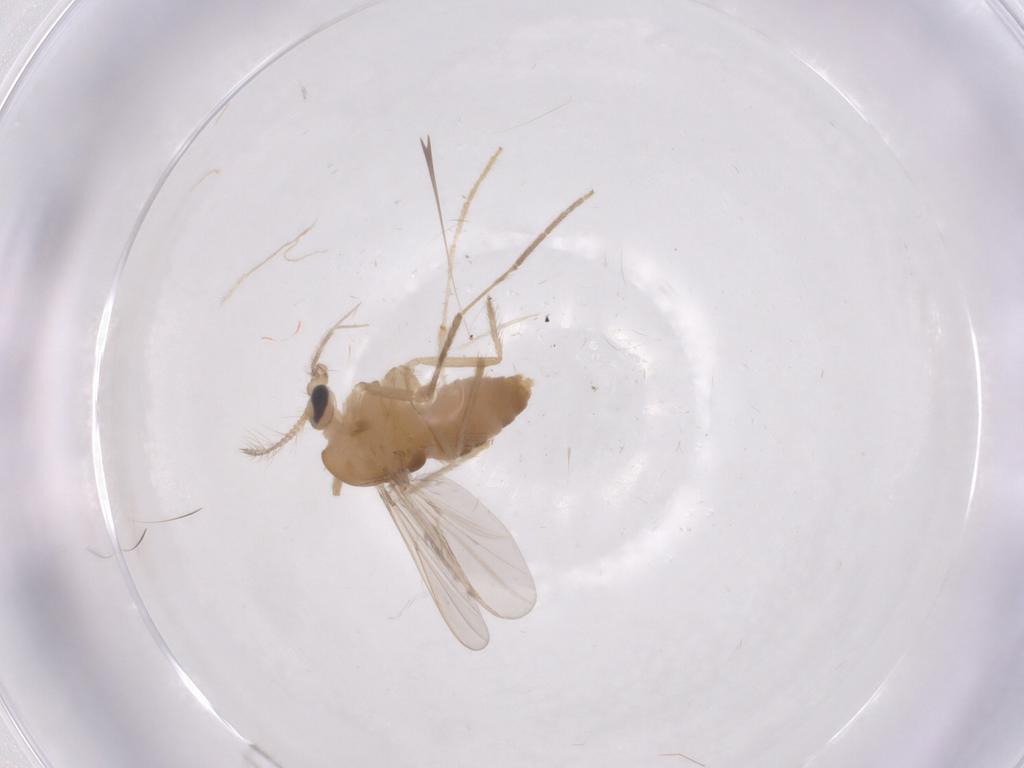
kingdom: Animalia
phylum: Arthropoda
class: Insecta
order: Diptera
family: Chironomidae
